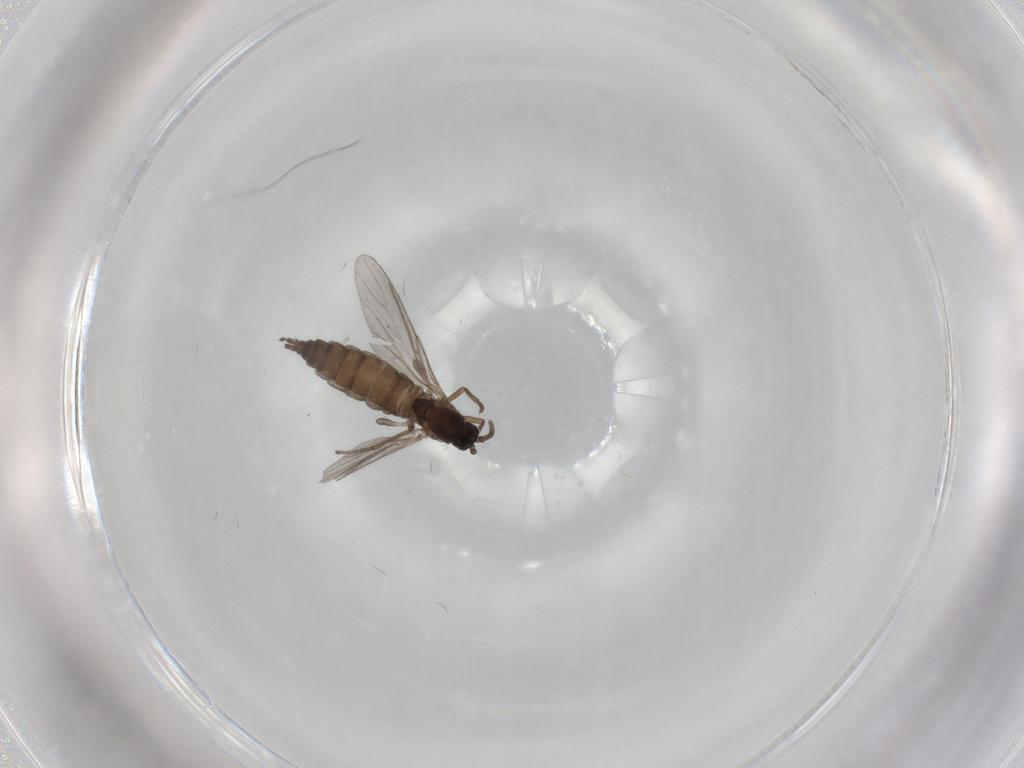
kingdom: Animalia
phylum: Arthropoda
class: Insecta
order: Diptera
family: Sciaridae
